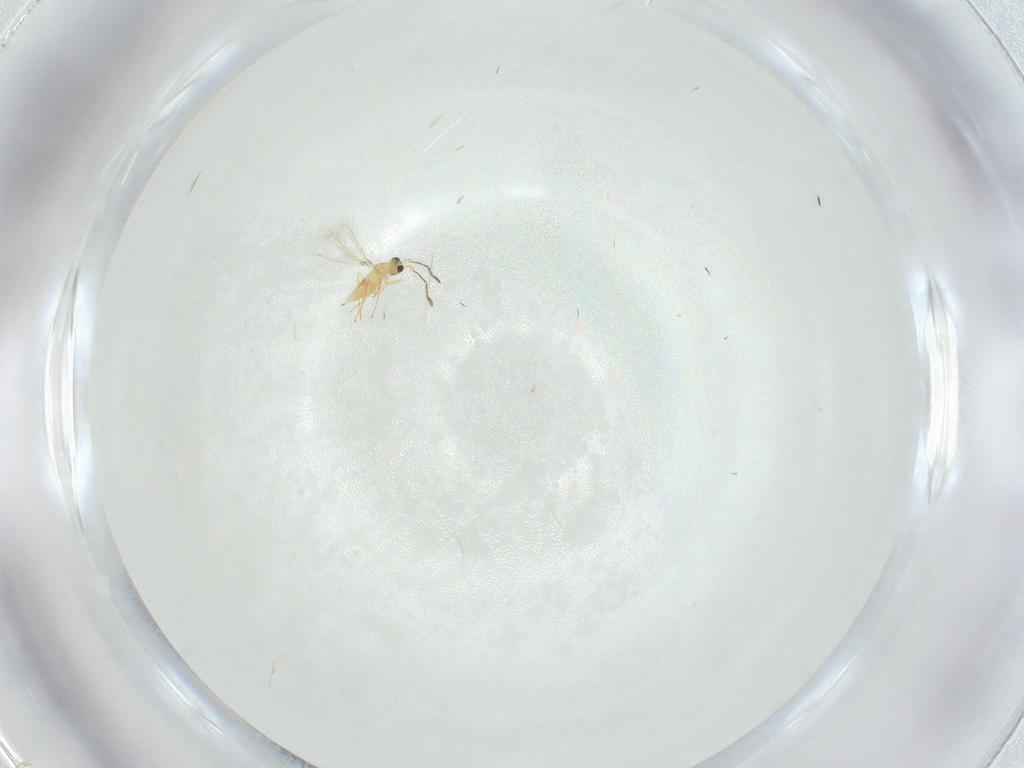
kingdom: Animalia
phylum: Arthropoda
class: Insecta
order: Hymenoptera
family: Mymaridae
